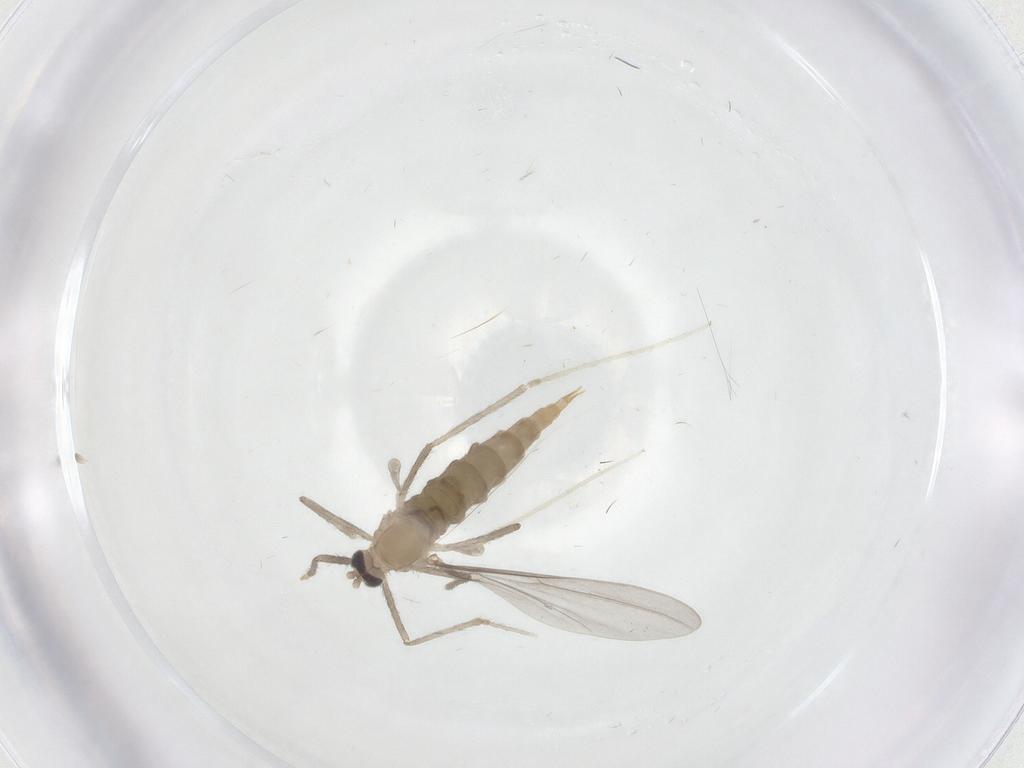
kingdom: Animalia
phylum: Arthropoda
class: Insecta
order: Diptera
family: Cecidomyiidae
